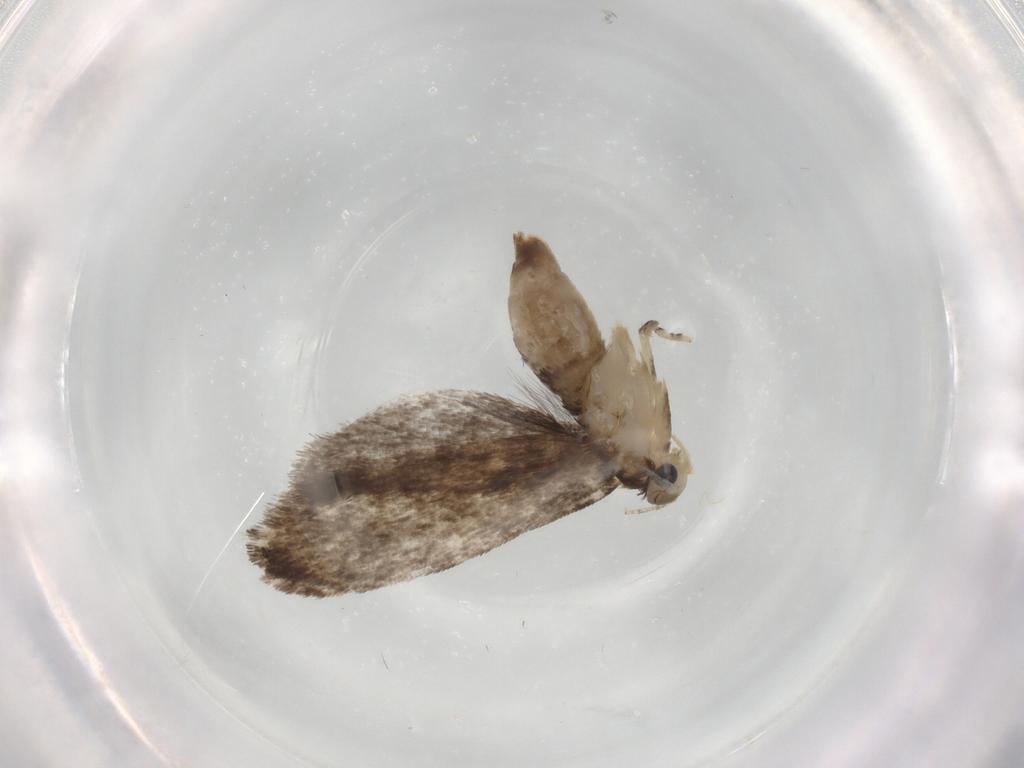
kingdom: Animalia
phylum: Arthropoda
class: Insecta
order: Lepidoptera
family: Tineidae
